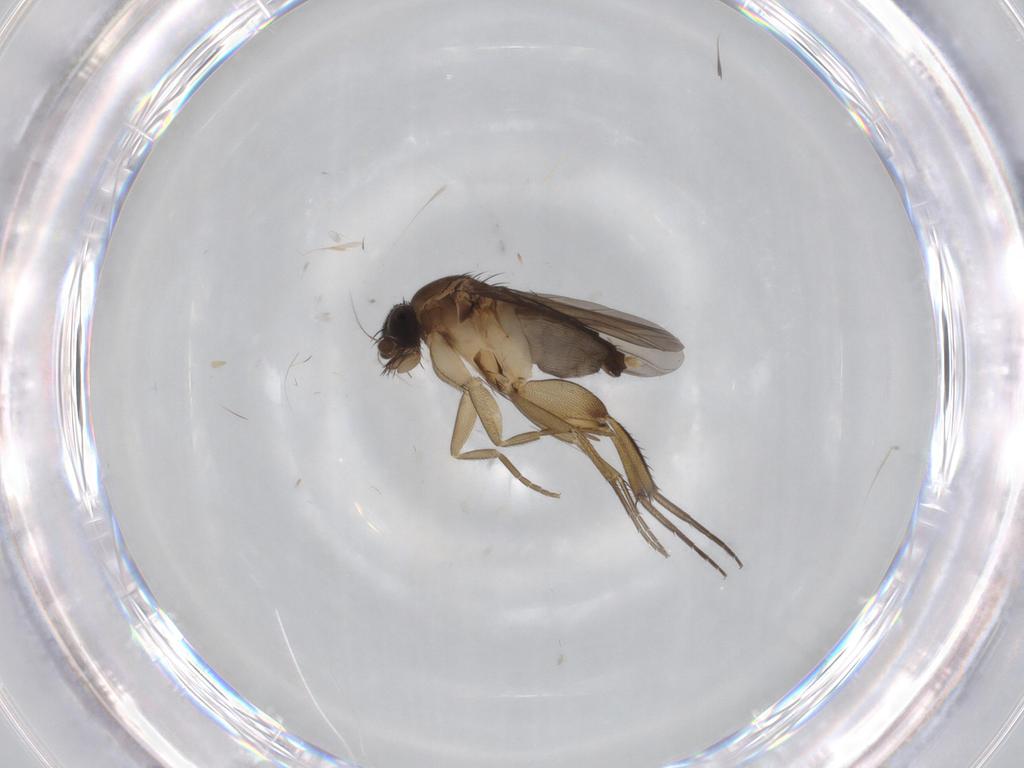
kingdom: Animalia
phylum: Arthropoda
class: Insecta
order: Diptera
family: Phoridae
